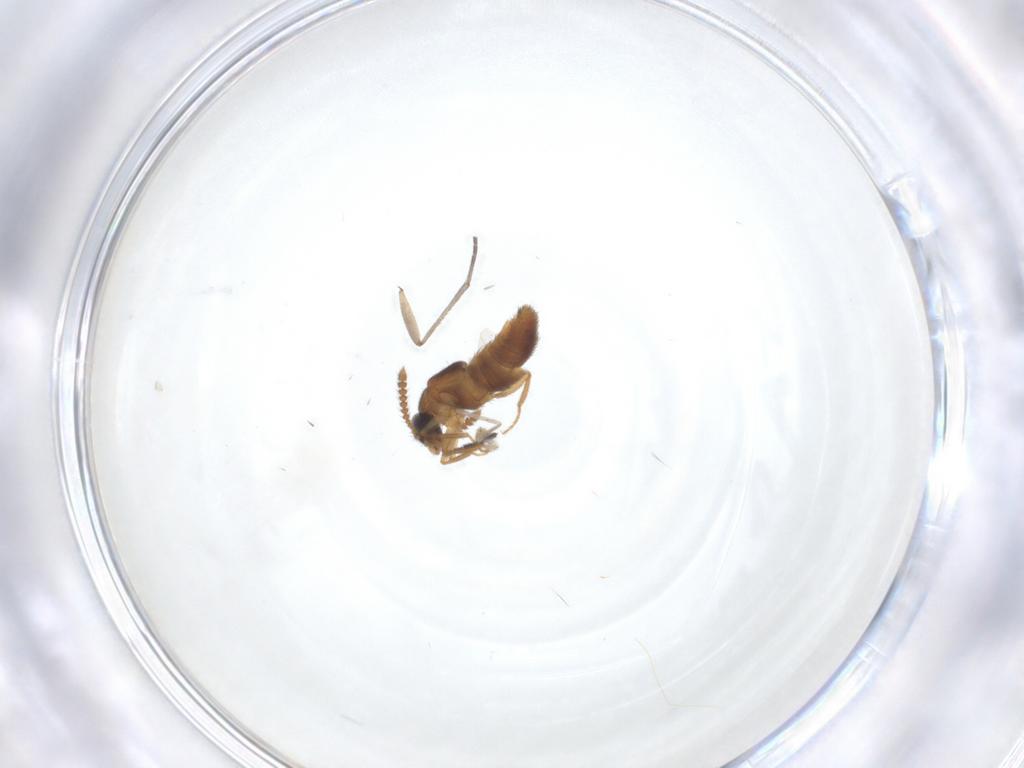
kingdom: Animalia
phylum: Arthropoda
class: Insecta
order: Coleoptera
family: Staphylinidae
